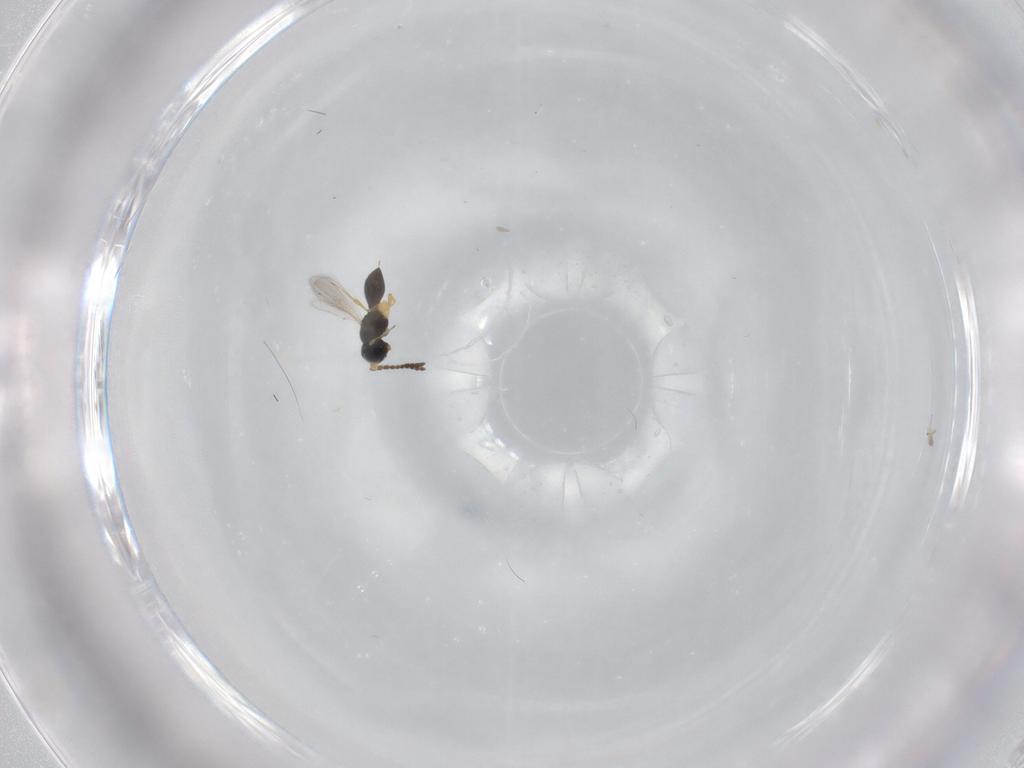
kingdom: Animalia
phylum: Arthropoda
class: Insecta
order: Hymenoptera
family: Scelionidae
